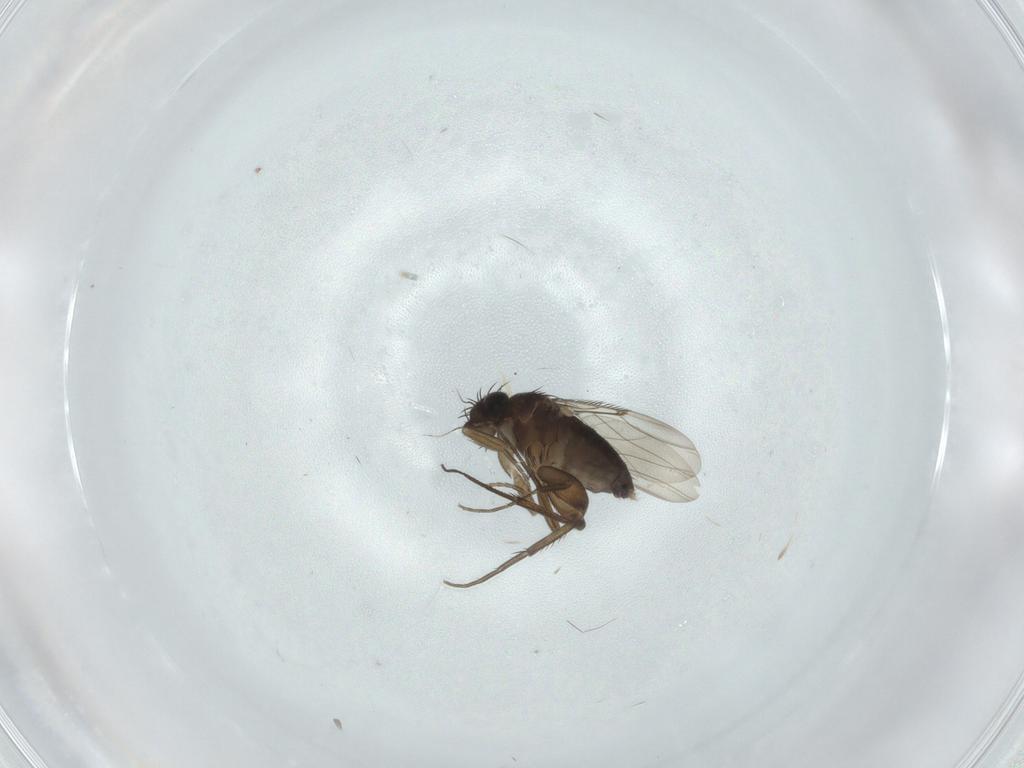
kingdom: Animalia
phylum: Arthropoda
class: Insecta
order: Diptera
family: Phoridae
